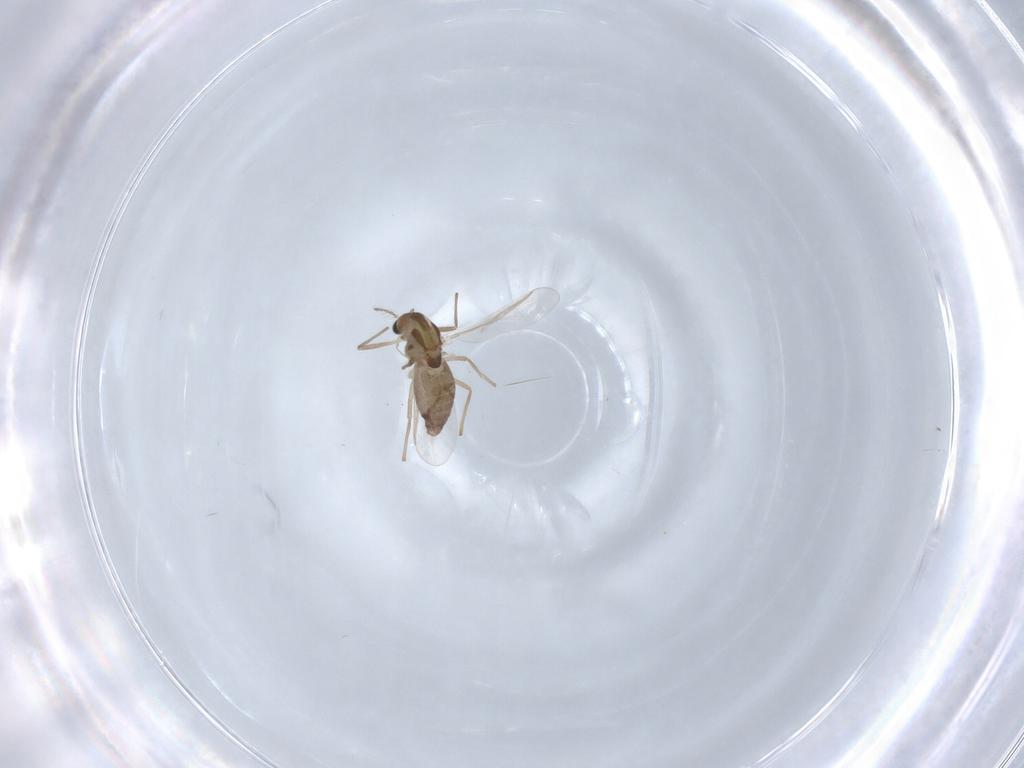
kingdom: Animalia
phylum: Arthropoda
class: Insecta
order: Diptera
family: Chironomidae
